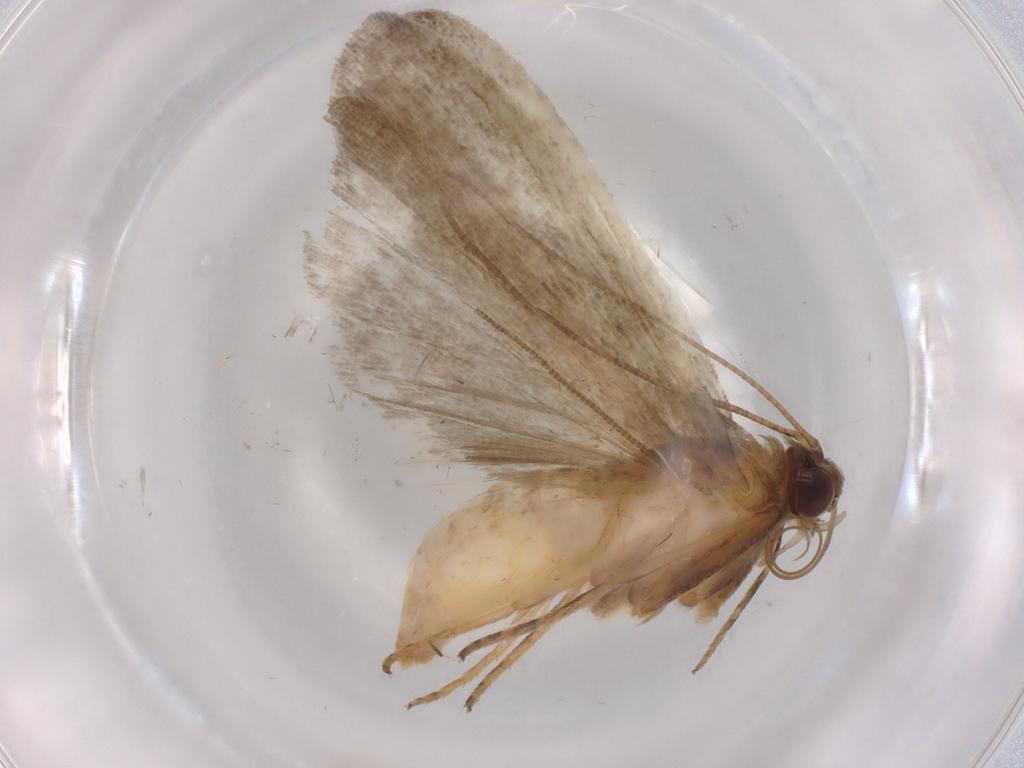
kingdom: Animalia
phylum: Arthropoda
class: Insecta
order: Lepidoptera
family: Noctuidae
